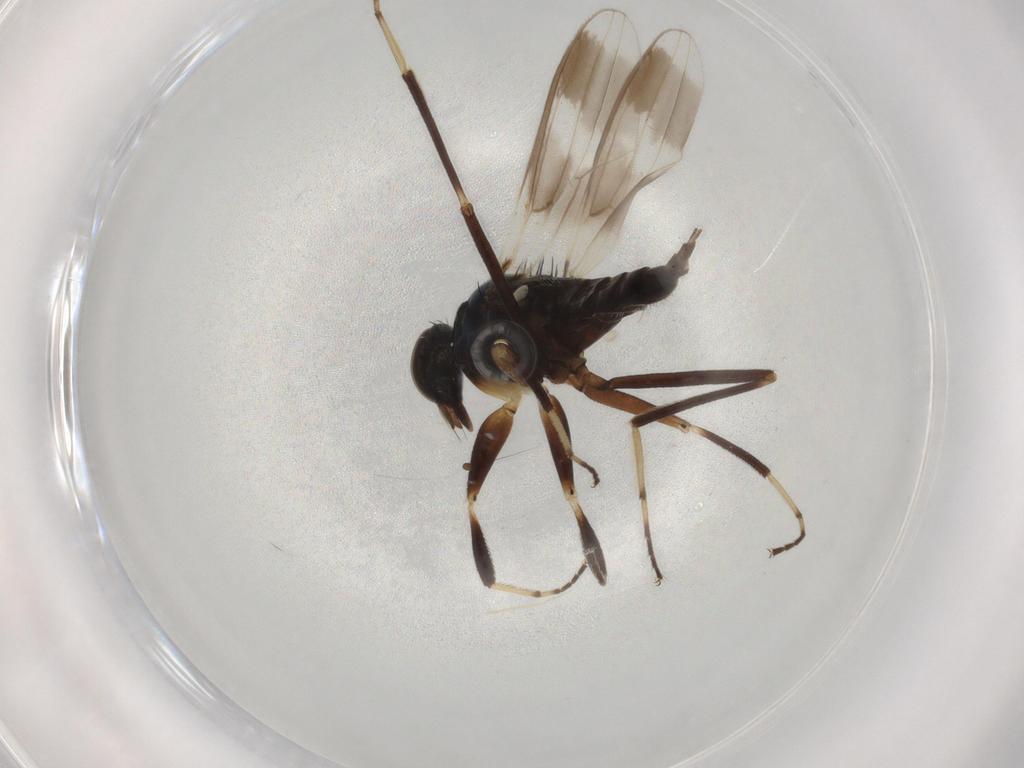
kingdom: Animalia
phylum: Arthropoda
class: Insecta
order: Diptera
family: Hybotidae
